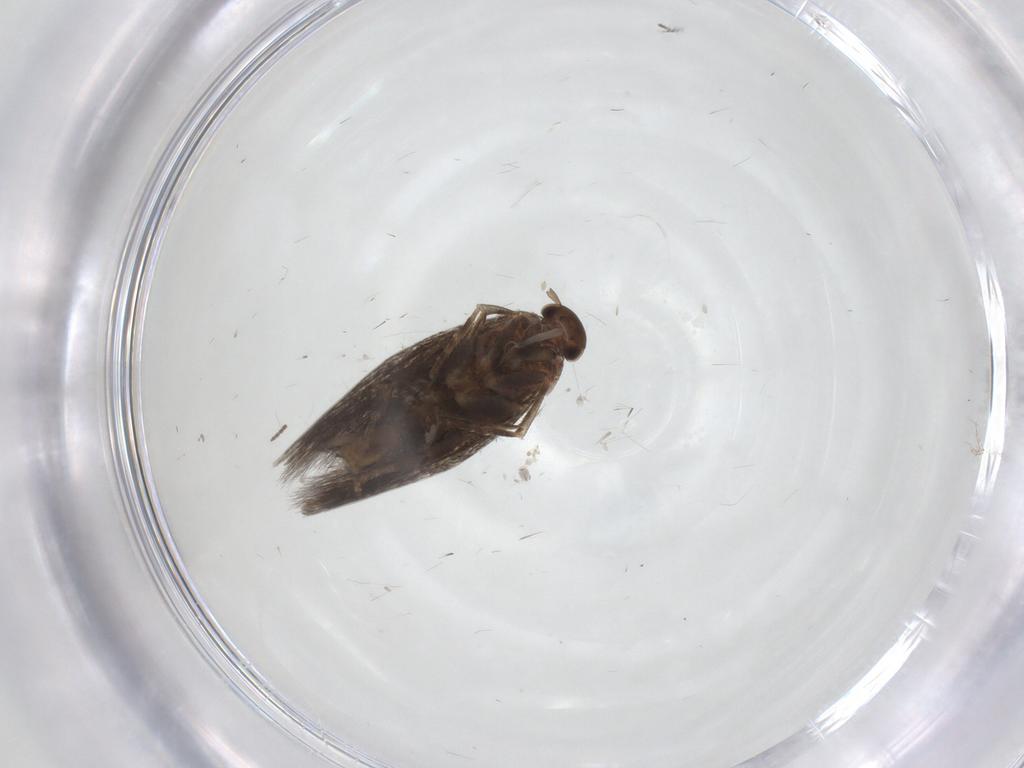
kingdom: Animalia
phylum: Arthropoda
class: Insecta
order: Lepidoptera
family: Elachistidae
